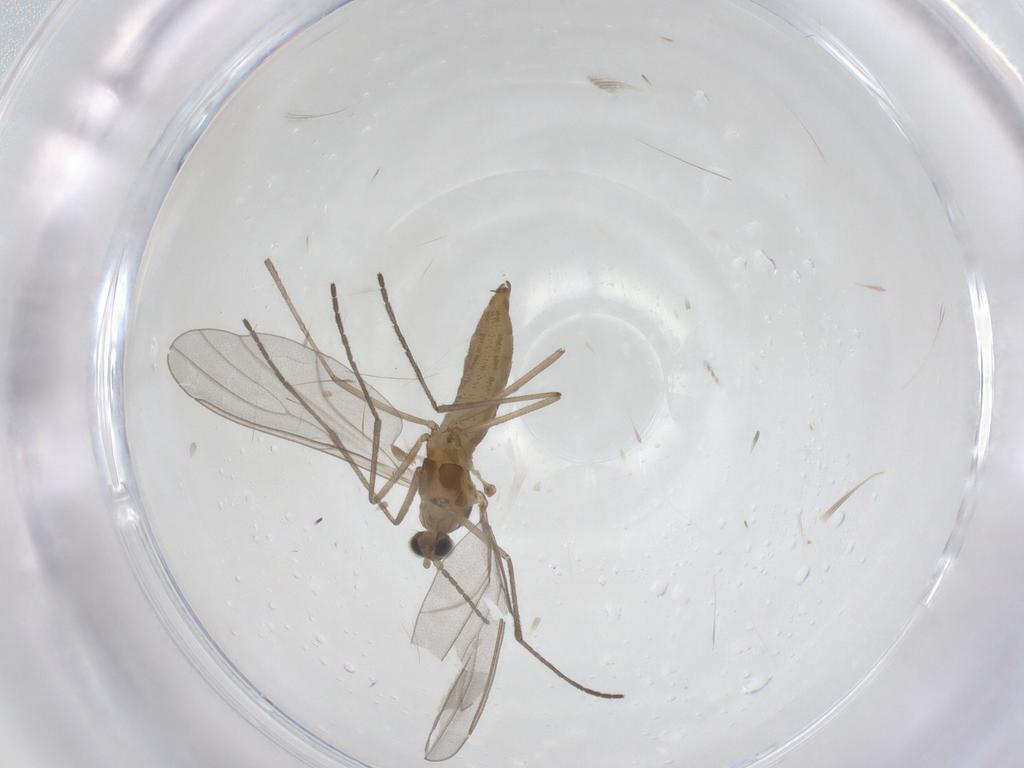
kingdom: Animalia
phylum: Arthropoda
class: Insecta
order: Diptera
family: Cecidomyiidae
